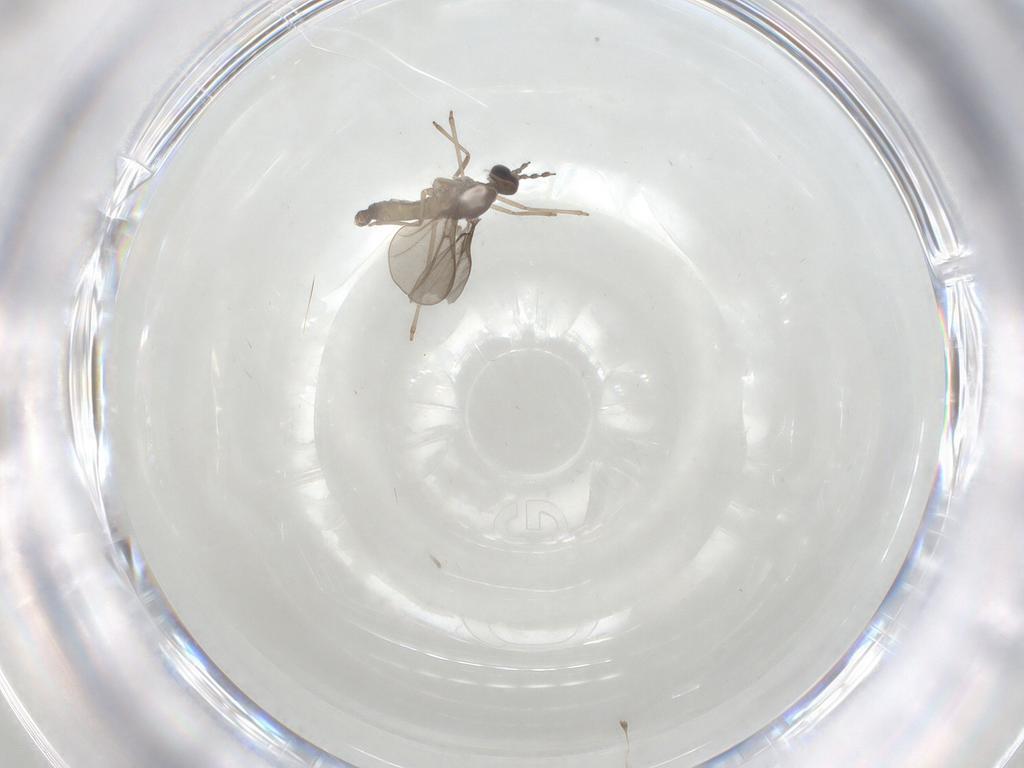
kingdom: Animalia
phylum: Arthropoda
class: Insecta
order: Diptera
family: Cecidomyiidae
